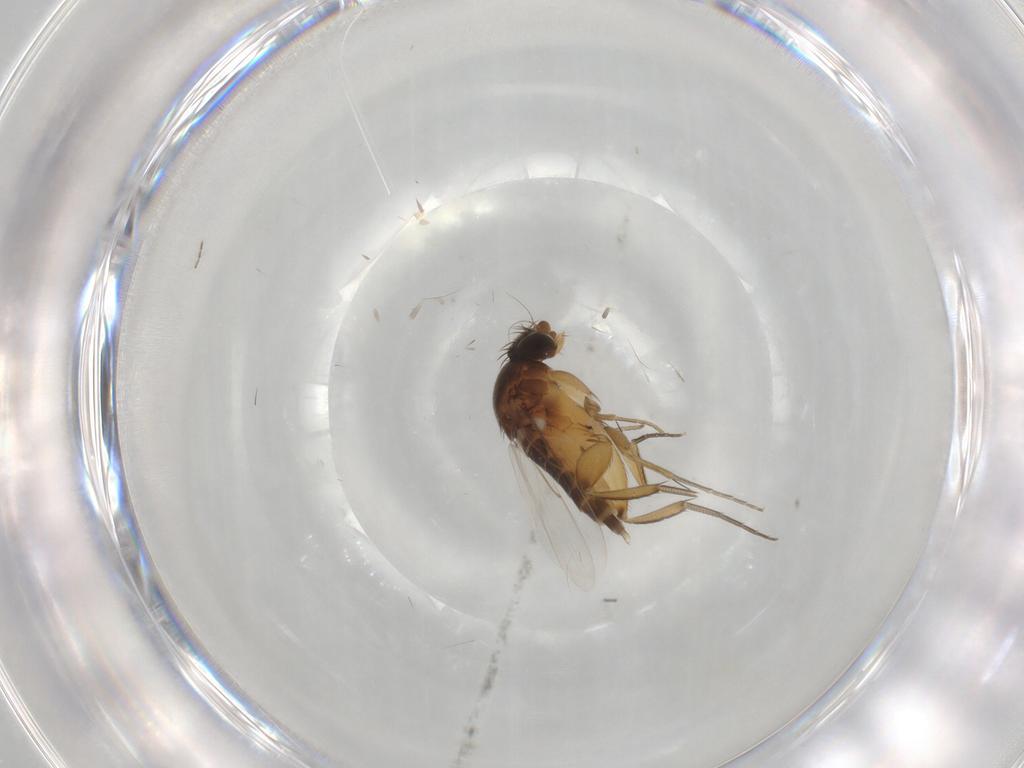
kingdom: Animalia
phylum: Arthropoda
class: Insecta
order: Diptera
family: Phoridae
